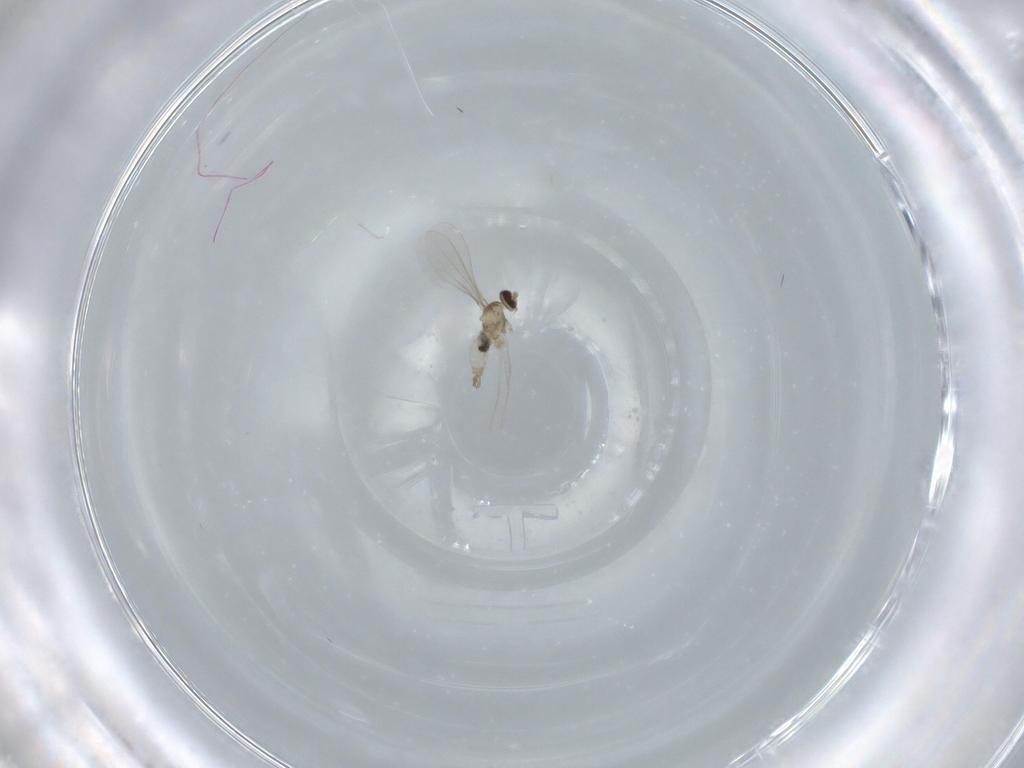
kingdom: Animalia
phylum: Arthropoda
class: Insecta
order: Diptera
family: Cecidomyiidae
